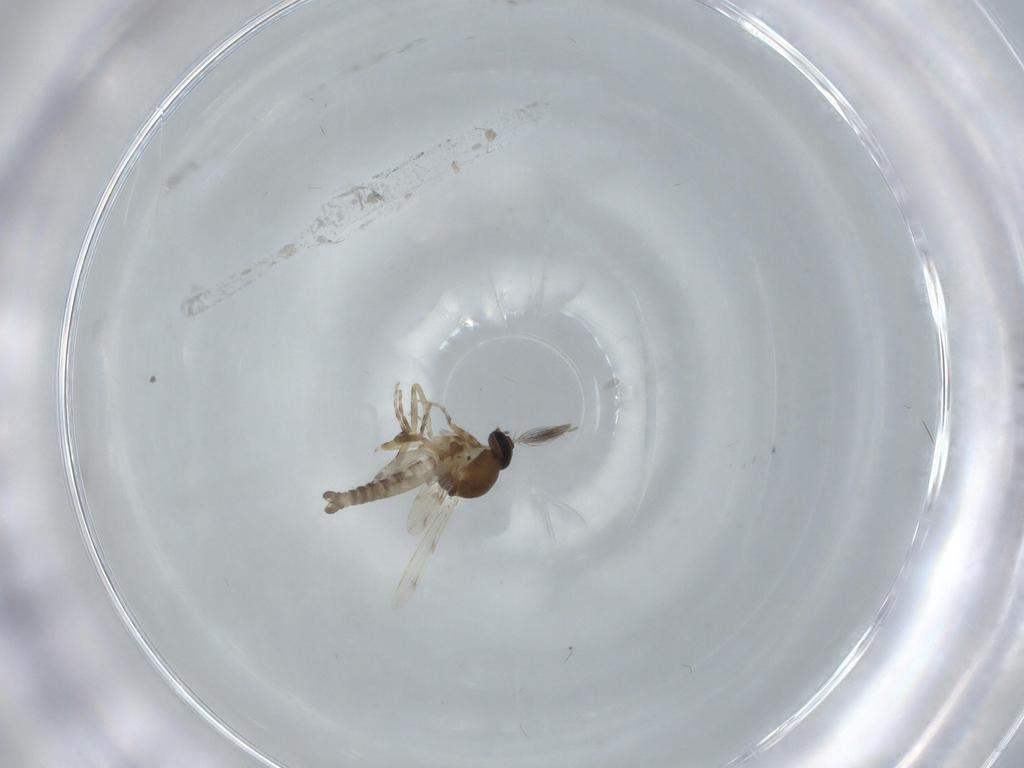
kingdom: Animalia
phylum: Arthropoda
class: Insecta
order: Diptera
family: Ceratopogonidae
